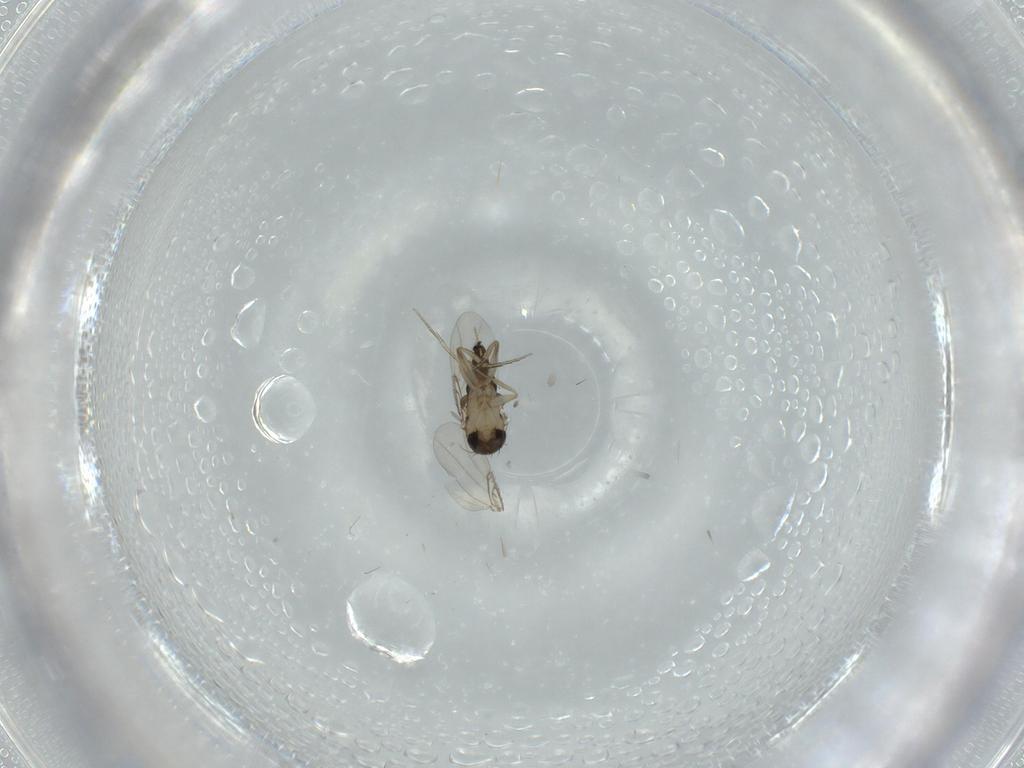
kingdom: Animalia
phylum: Arthropoda
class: Insecta
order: Diptera
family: Phoridae
